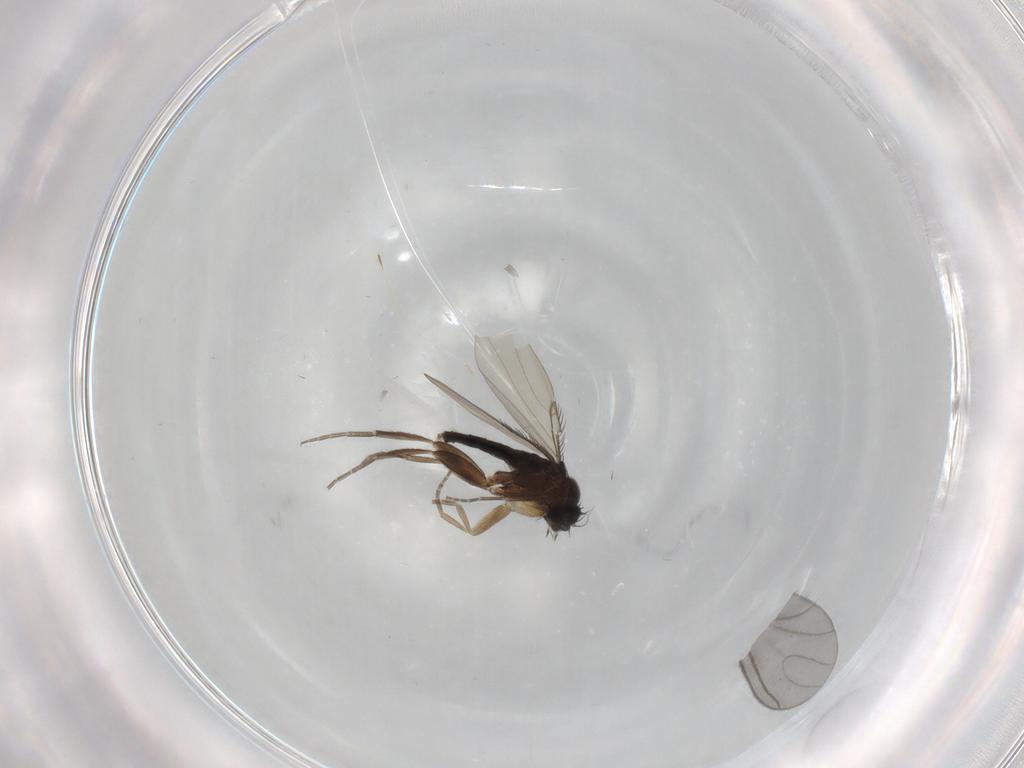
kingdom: Animalia
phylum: Arthropoda
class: Insecta
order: Diptera
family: Phoridae
